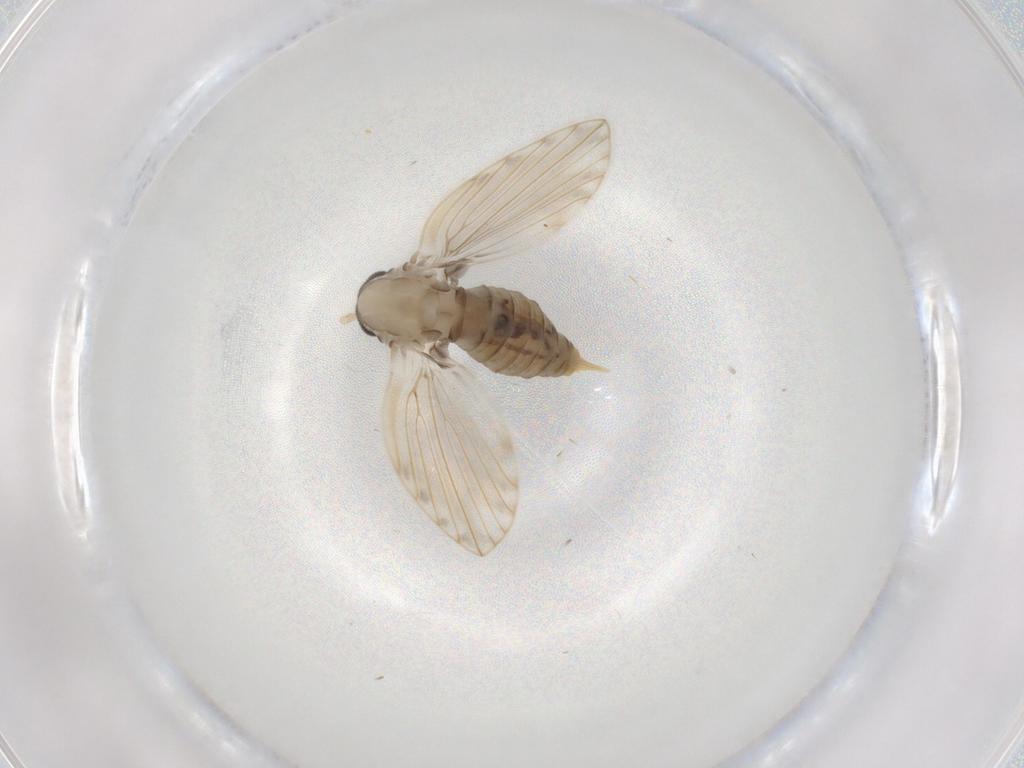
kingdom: Animalia
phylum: Arthropoda
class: Insecta
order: Diptera
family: Psychodidae
